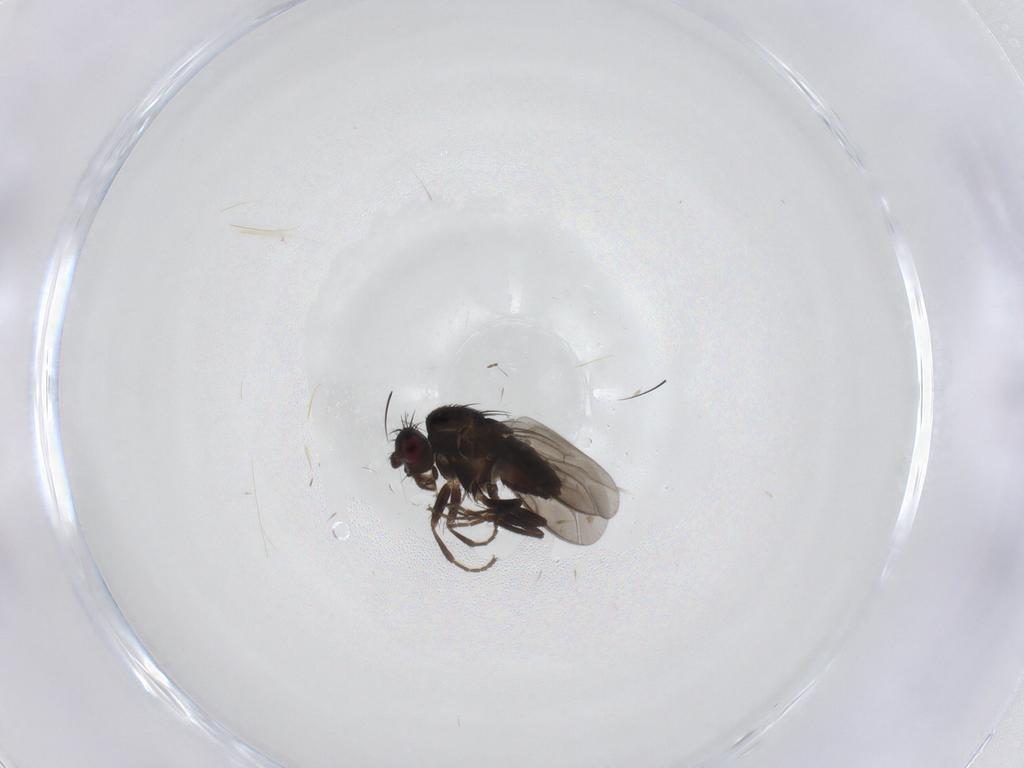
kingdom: Animalia
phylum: Arthropoda
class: Insecta
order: Diptera
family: Sphaeroceridae
